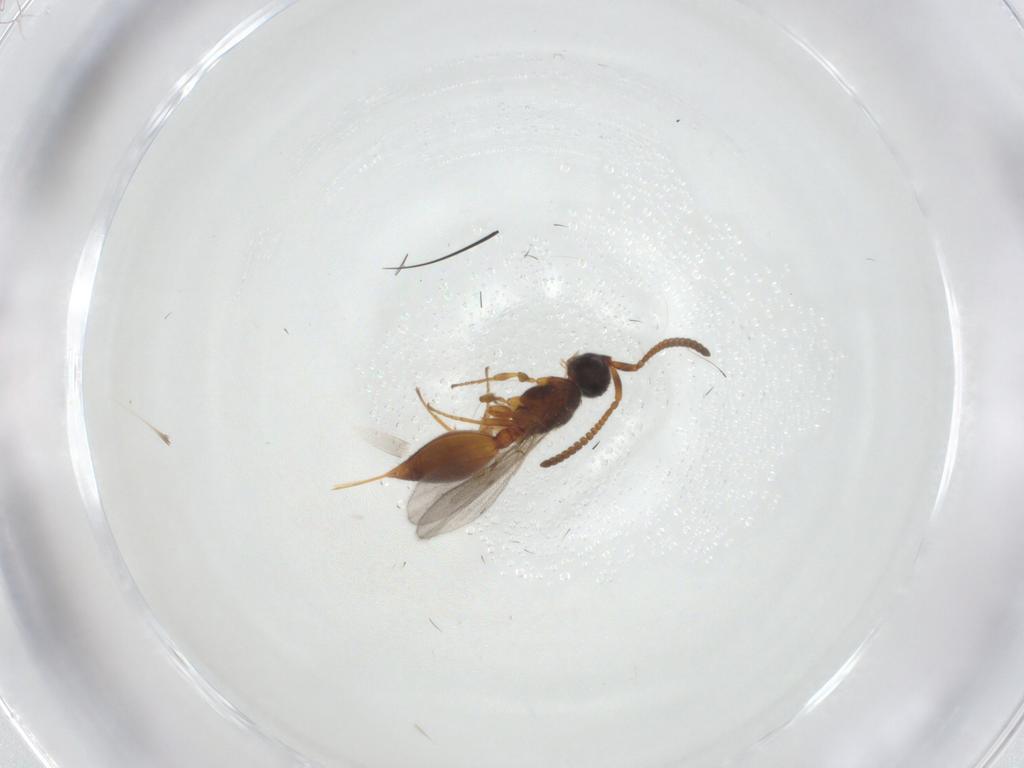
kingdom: Animalia
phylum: Arthropoda
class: Insecta
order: Hymenoptera
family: Diapriidae
